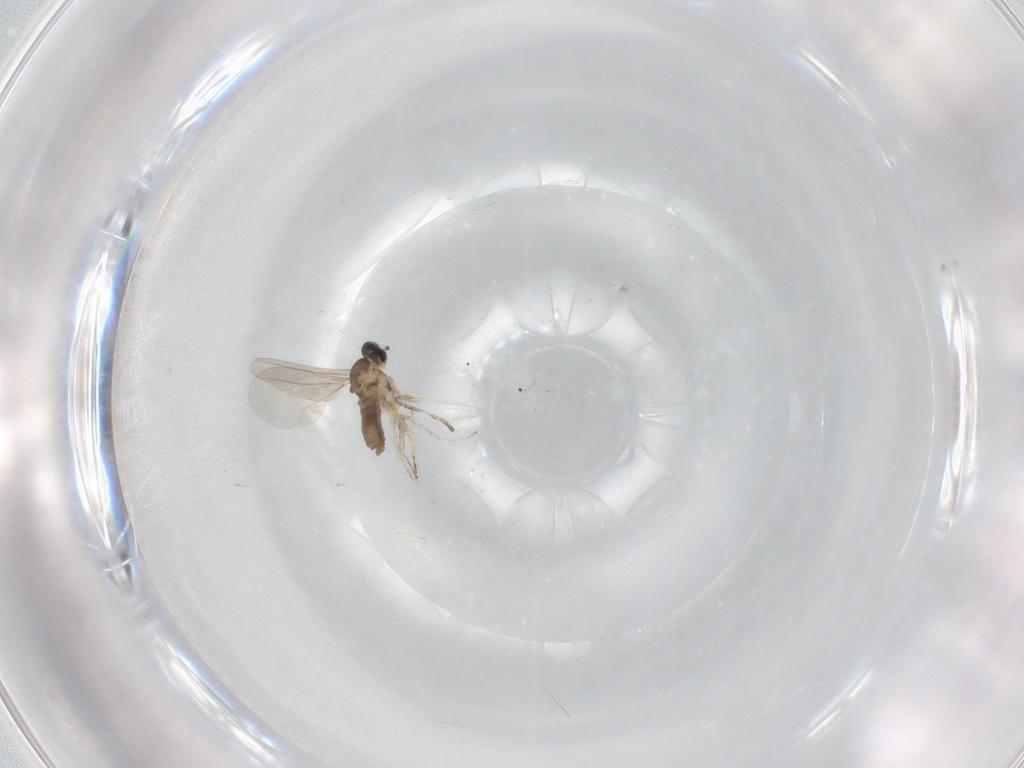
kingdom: Animalia
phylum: Arthropoda
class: Insecta
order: Diptera
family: Cecidomyiidae
